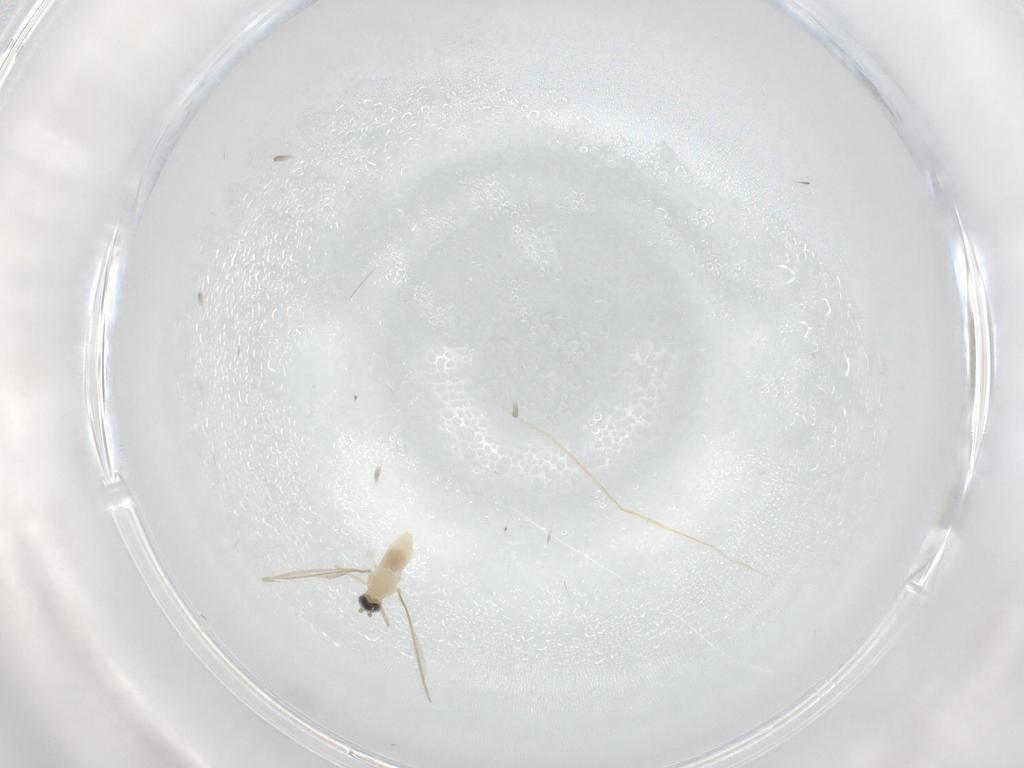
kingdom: Animalia
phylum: Arthropoda
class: Insecta
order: Diptera
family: Cecidomyiidae
